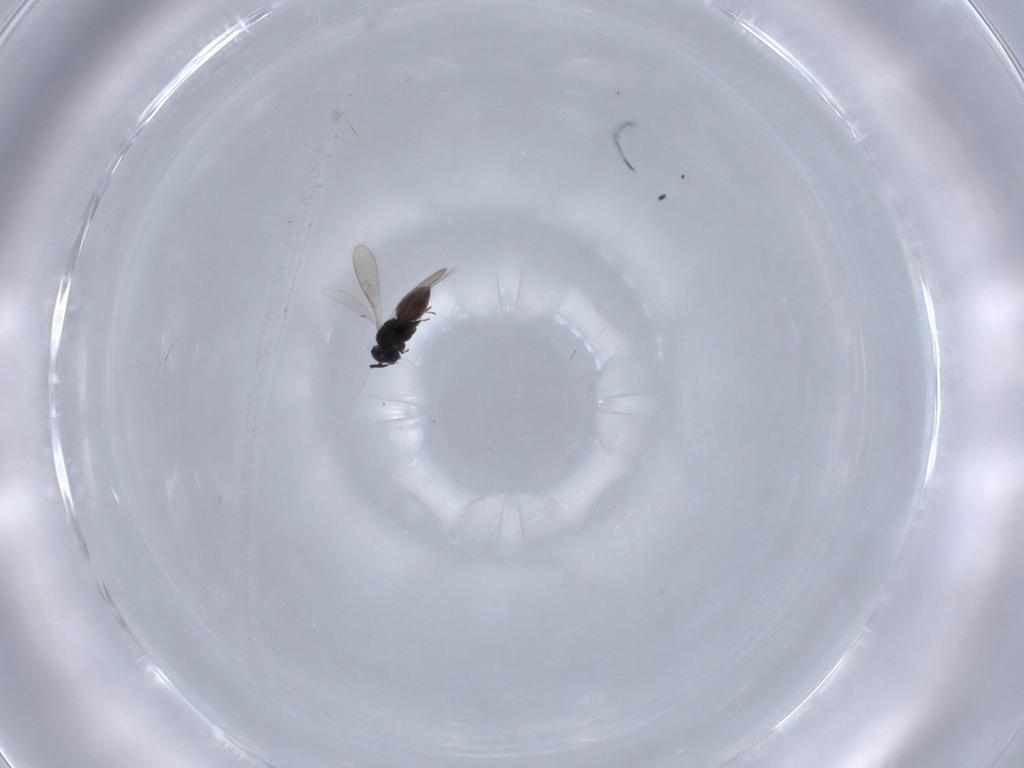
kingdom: Animalia
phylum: Arthropoda
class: Insecta
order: Hymenoptera
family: Scelionidae
